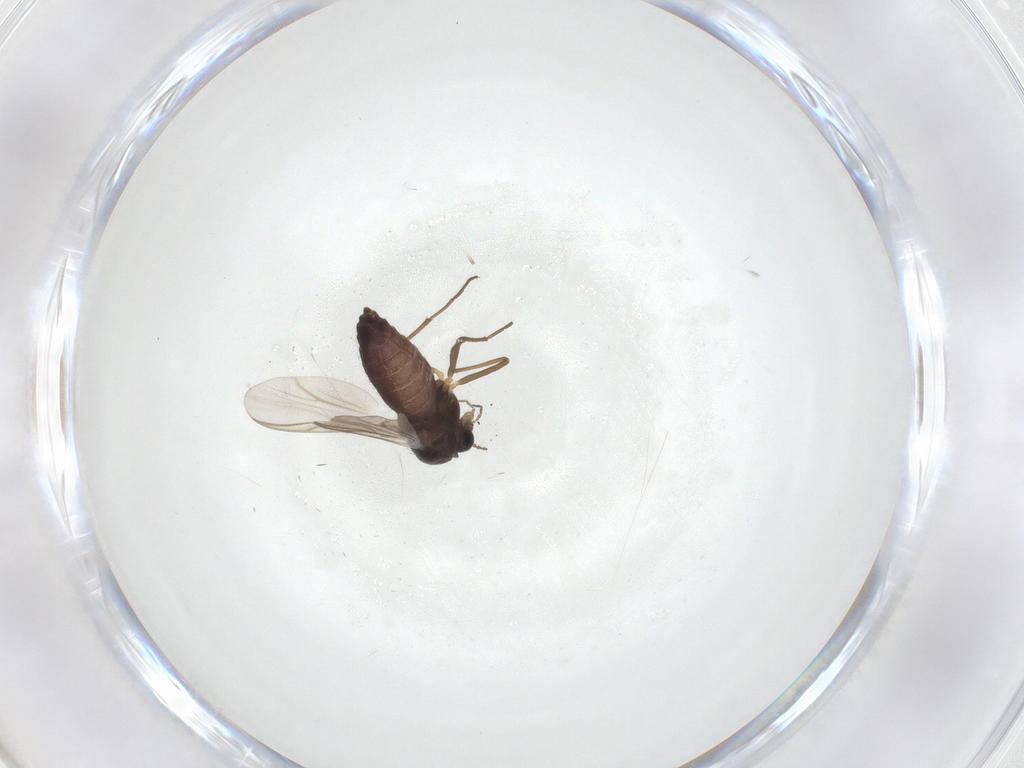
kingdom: Animalia
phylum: Arthropoda
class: Insecta
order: Diptera
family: Chironomidae
